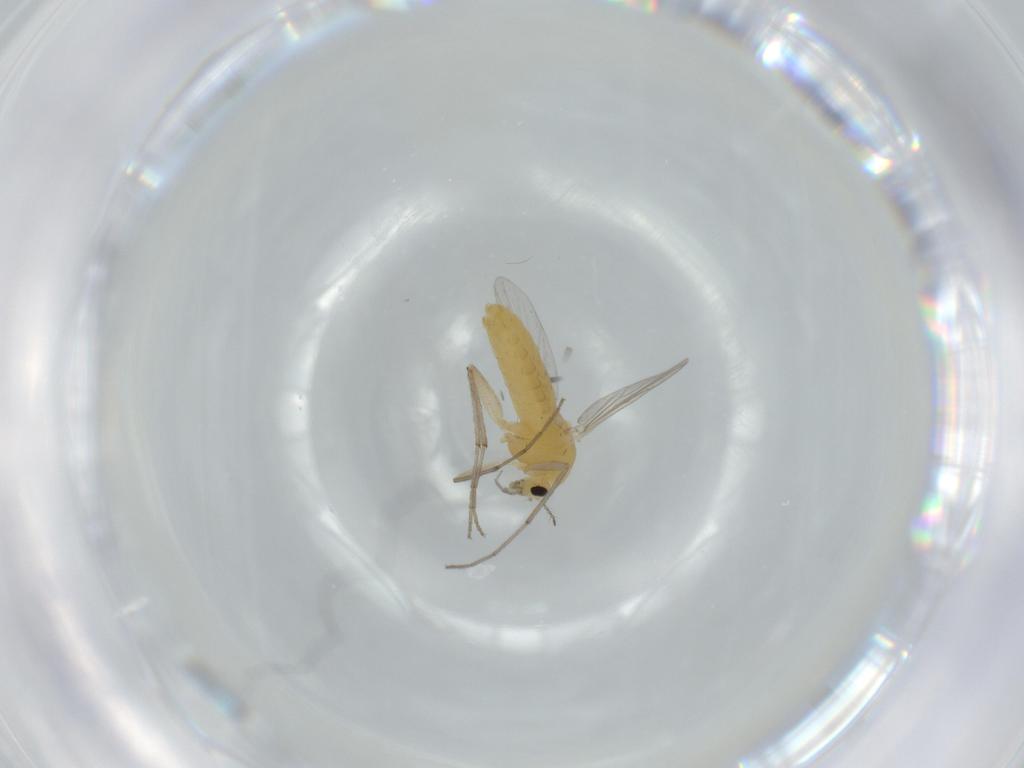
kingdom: Animalia
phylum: Arthropoda
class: Insecta
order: Diptera
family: Chironomidae
